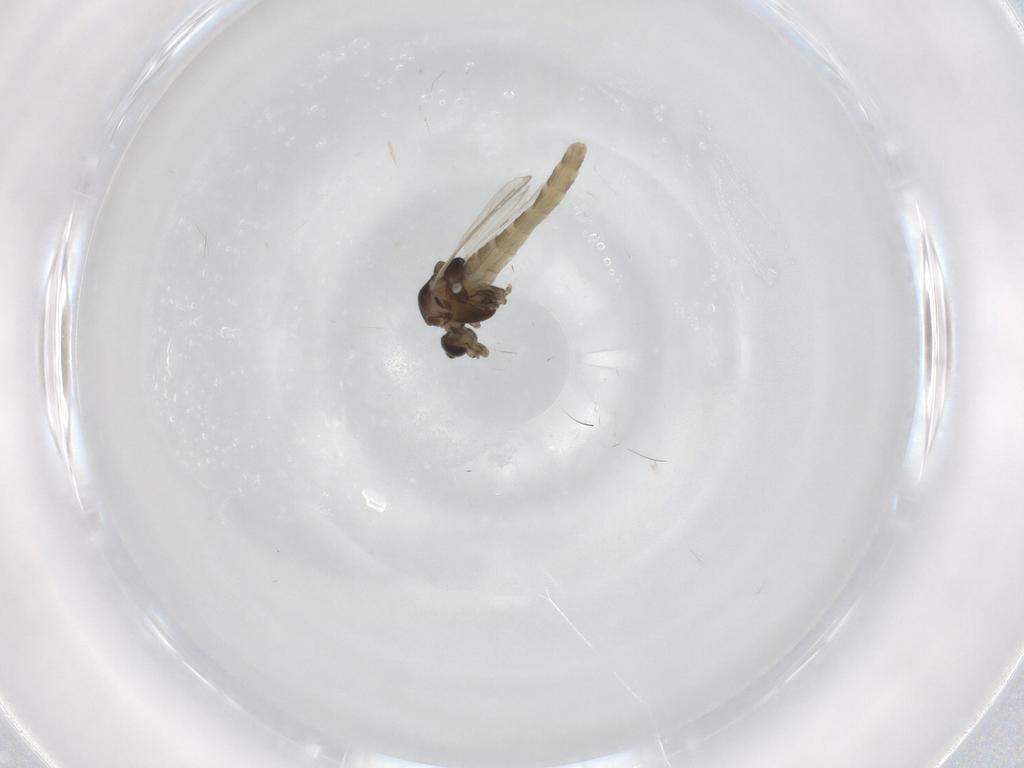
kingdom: Animalia
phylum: Arthropoda
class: Insecta
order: Diptera
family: Chironomidae
